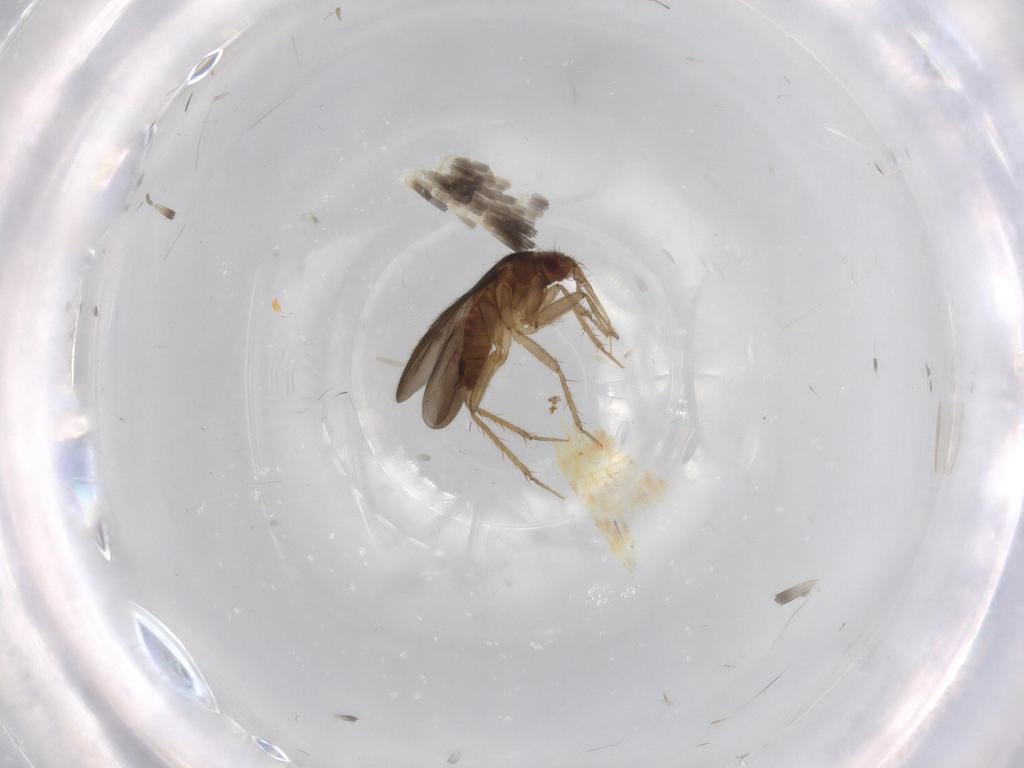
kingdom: Animalia
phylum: Arthropoda
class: Insecta
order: Hemiptera
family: Ceratocombidae
